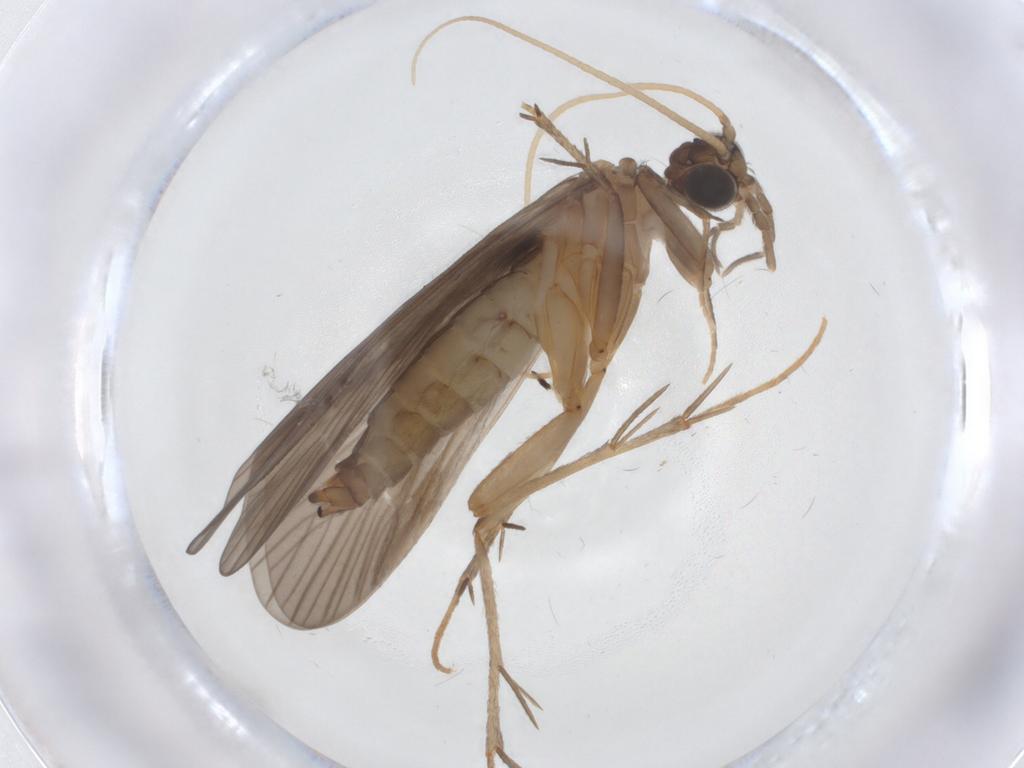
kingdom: Animalia
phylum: Arthropoda
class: Insecta
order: Trichoptera
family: Philopotamidae
